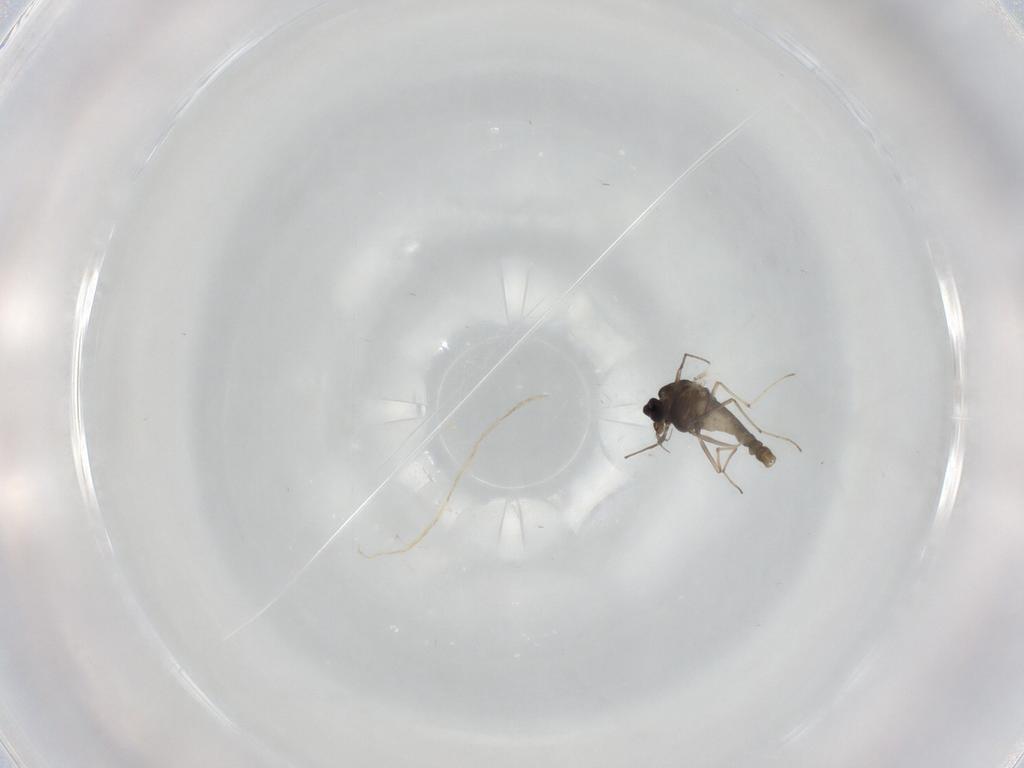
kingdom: Animalia
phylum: Arthropoda
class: Insecta
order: Diptera
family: Chironomidae
